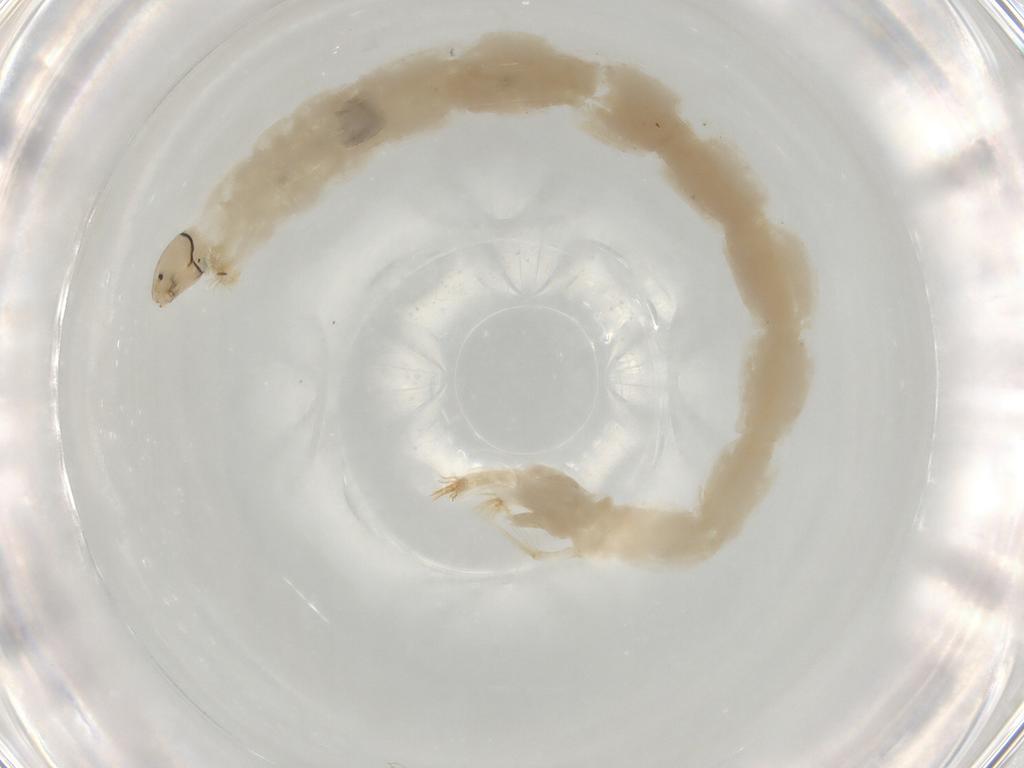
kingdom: Animalia
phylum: Arthropoda
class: Insecta
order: Diptera
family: Chironomidae
